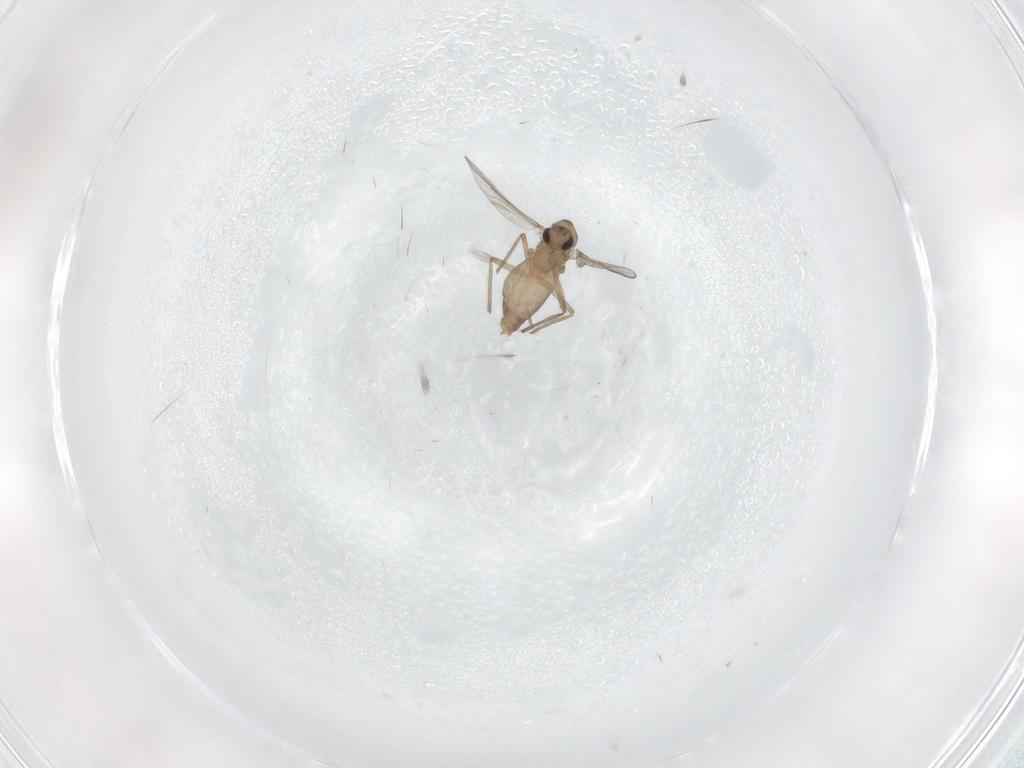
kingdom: Animalia
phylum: Arthropoda
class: Insecta
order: Diptera
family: Chironomidae
